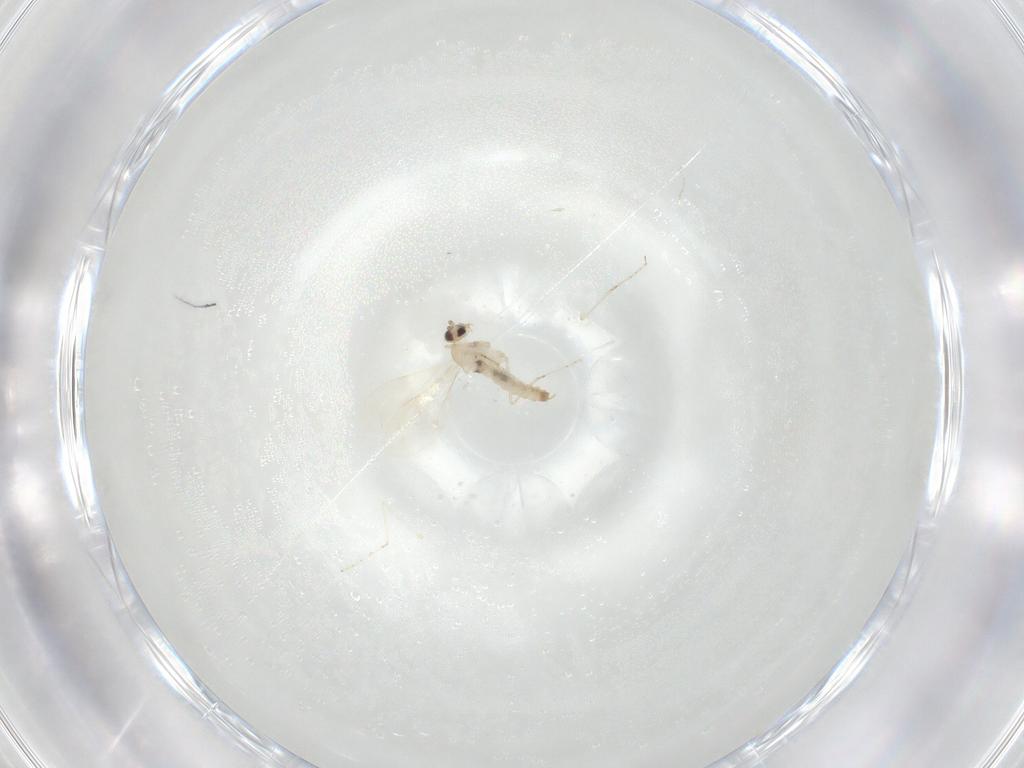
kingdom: Animalia
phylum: Arthropoda
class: Insecta
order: Diptera
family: Cecidomyiidae
